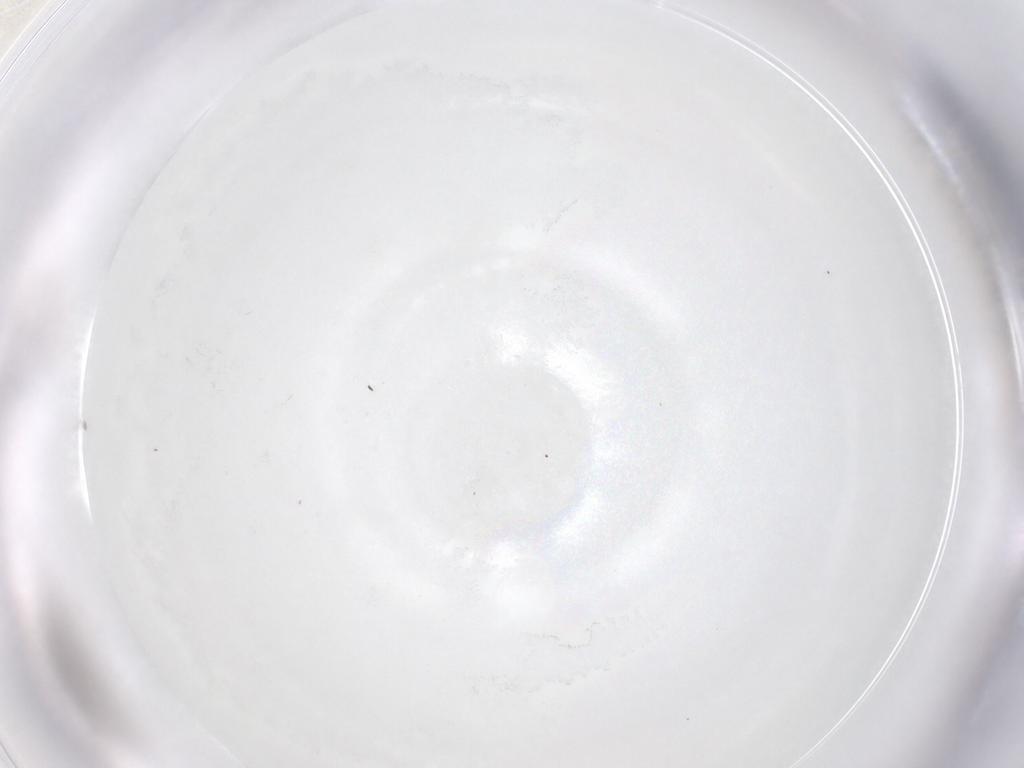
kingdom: Animalia
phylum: Arthropoda
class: Insecta
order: Diptera
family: Cecidomyiidae
